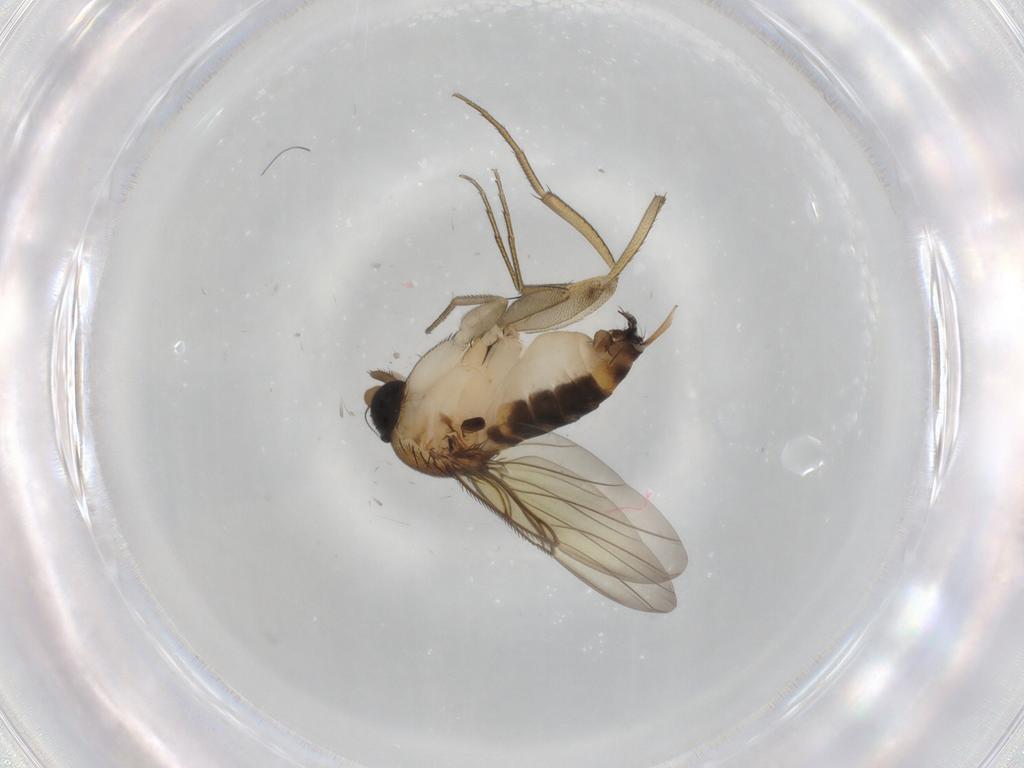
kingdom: Animalia
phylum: Arthropoda
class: Insecta
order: Diptera
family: Phoridae
